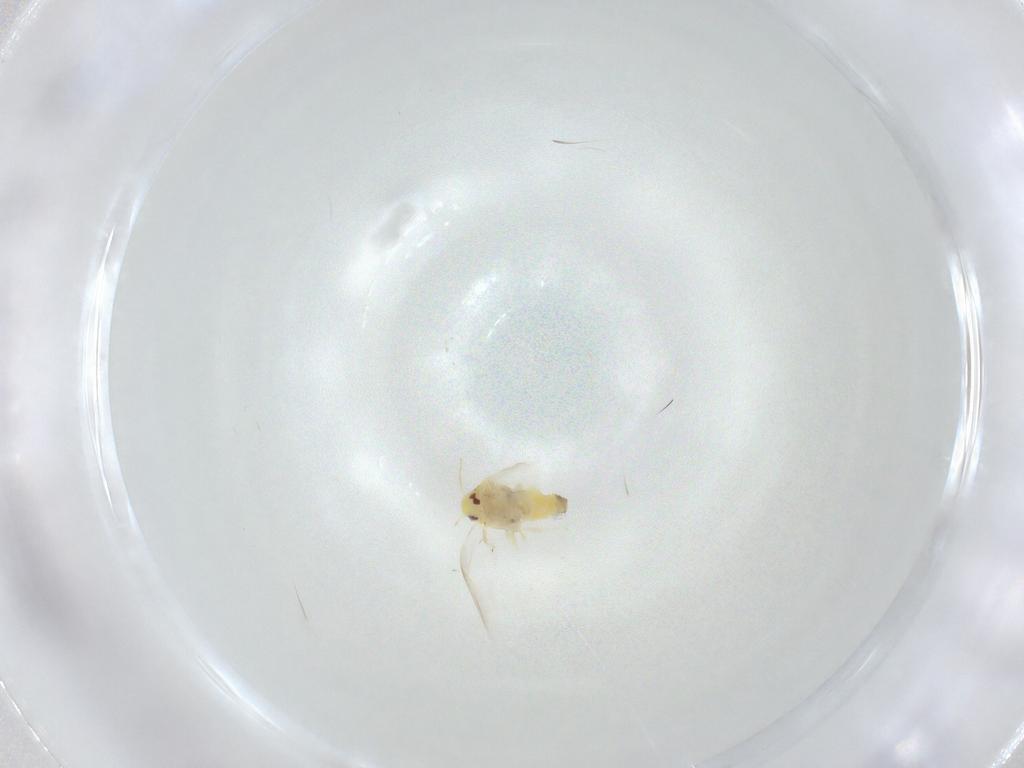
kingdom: Animalia
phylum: Arthropoda
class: Insecta
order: Hemiptera
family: Aleyrodidae
